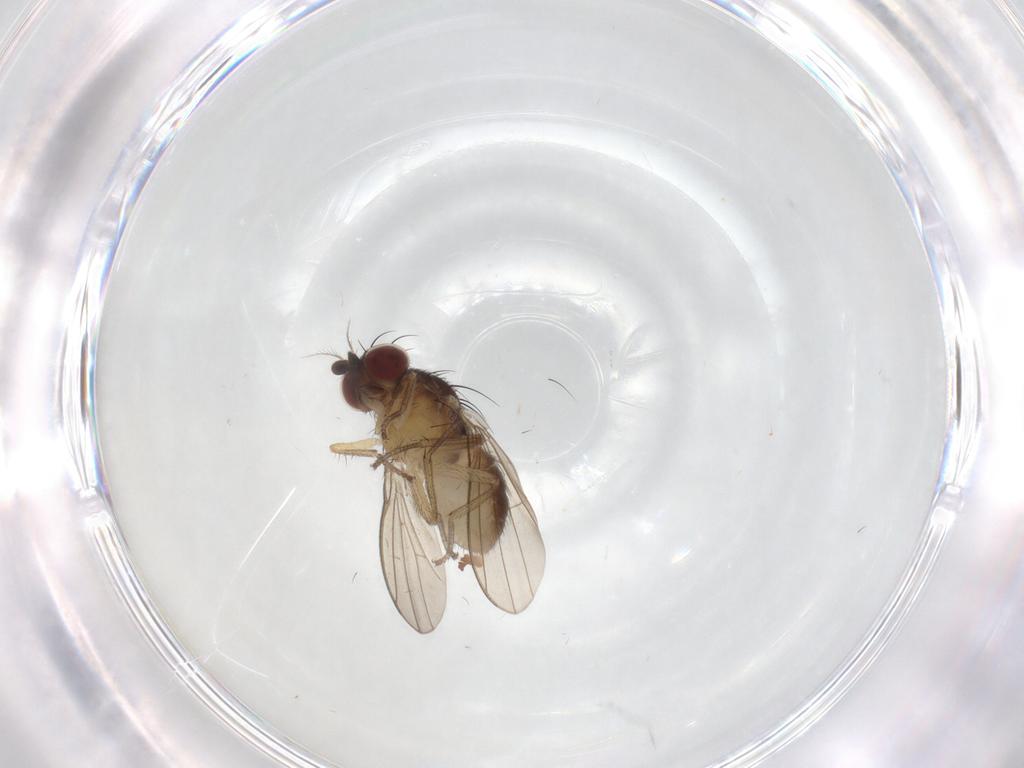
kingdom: Animalia
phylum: Arthropoda
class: Insecta
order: Diptera
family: Sciaridae
